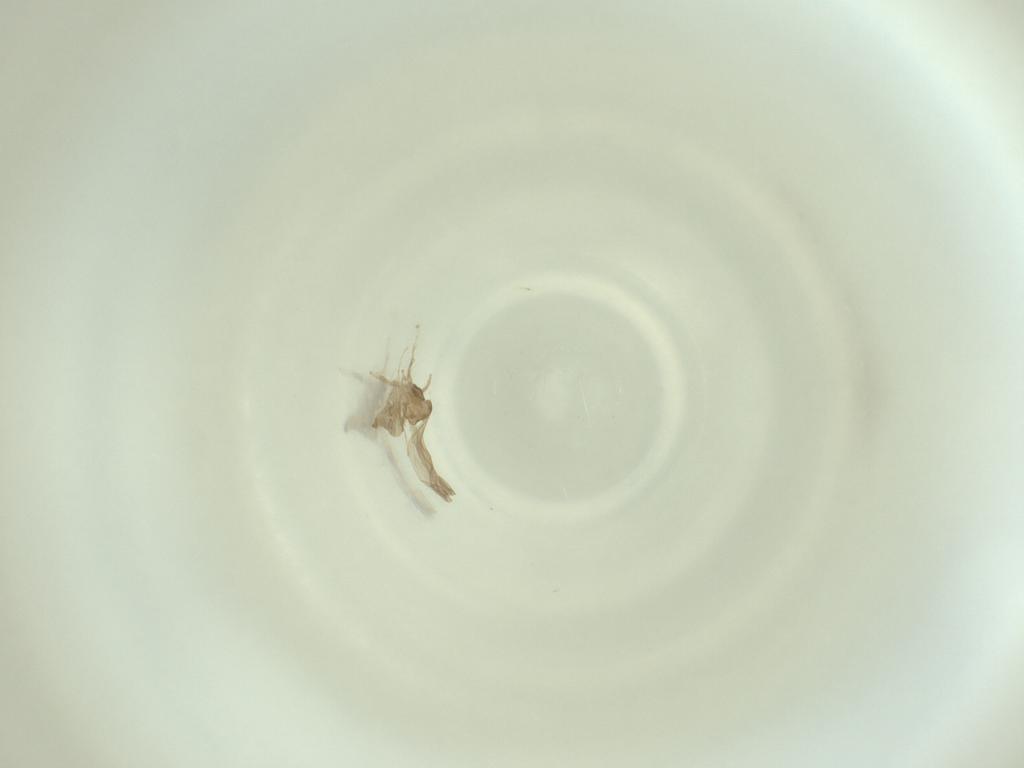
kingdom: Animalia
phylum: Arthropoda
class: Insecta
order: Diptera
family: Cecidomyiidae
